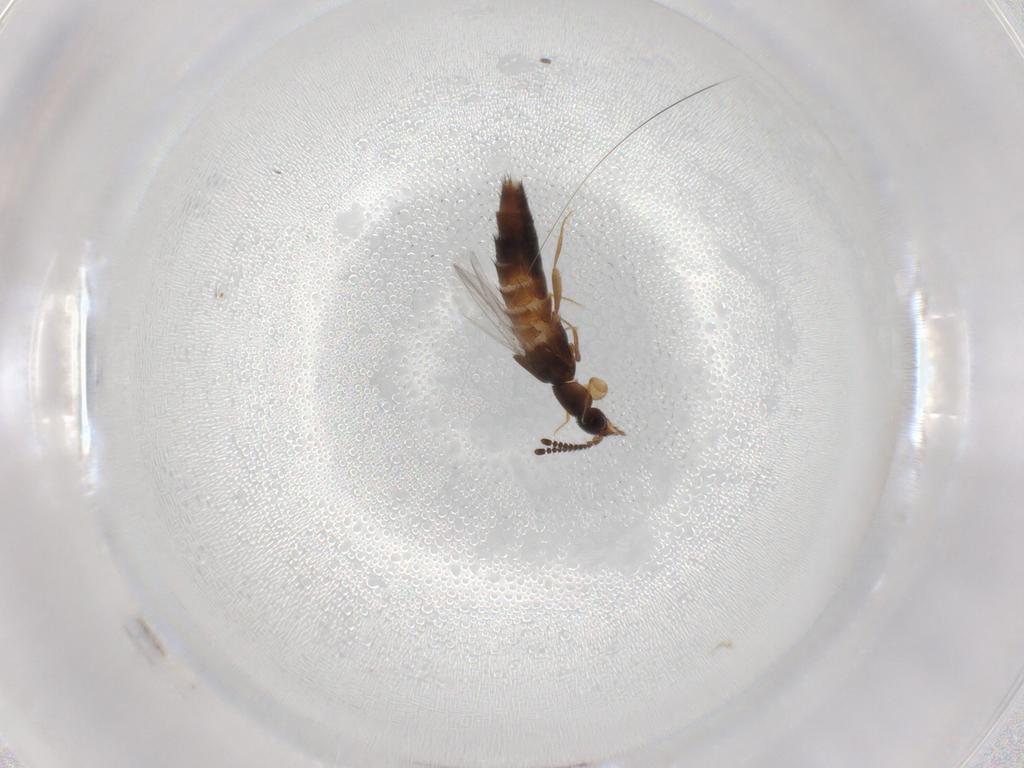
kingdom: Animalia
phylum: Arthropoda
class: Insecta
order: Coleoptera
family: Staphylinidae
